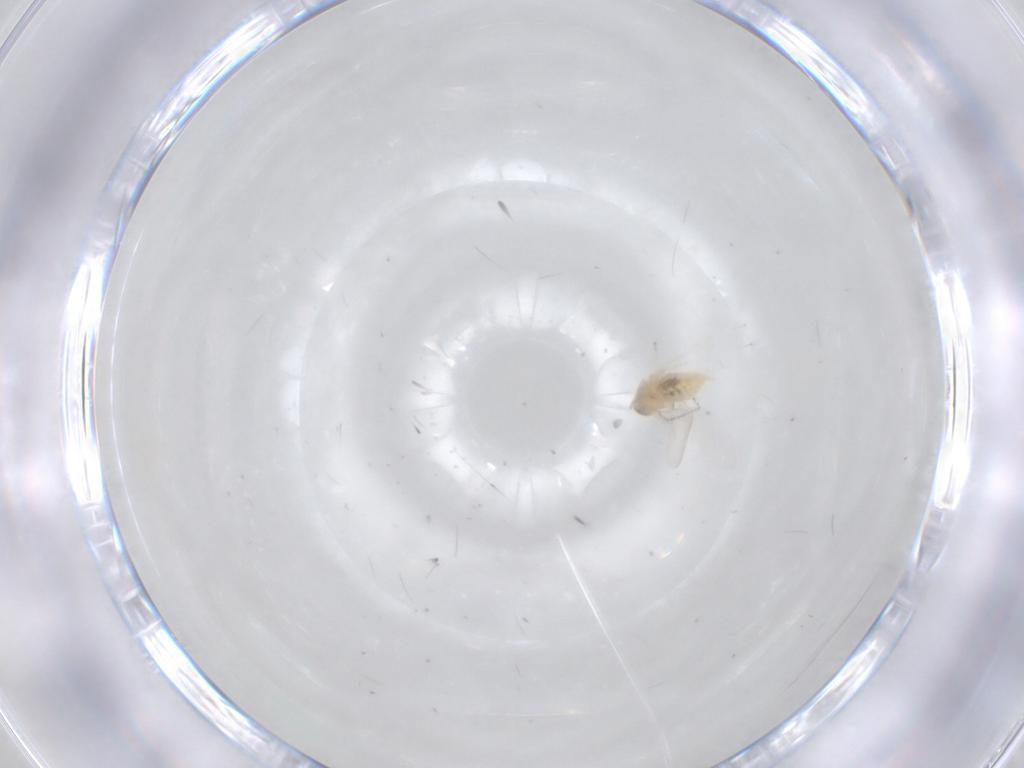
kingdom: Animalia
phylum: Arthropoda
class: Insecta
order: Diptera
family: Cecidomyiidae
